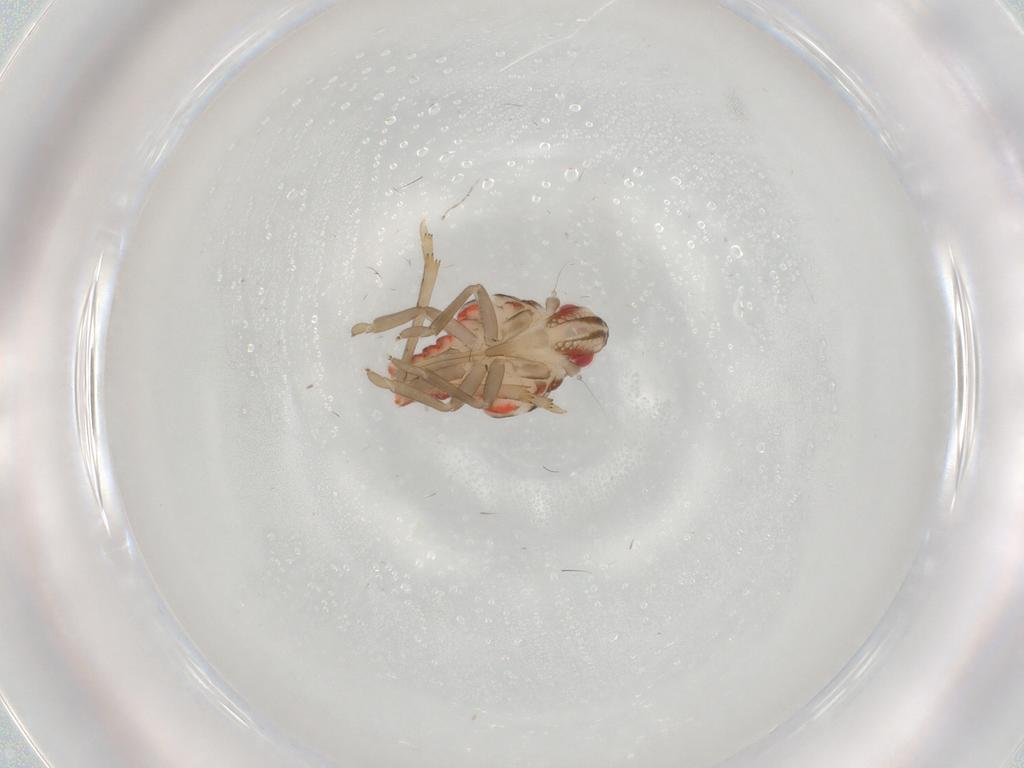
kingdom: Animalia
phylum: Arthropoda
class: Insecta
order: Hemiptera
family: Nogodinidae
